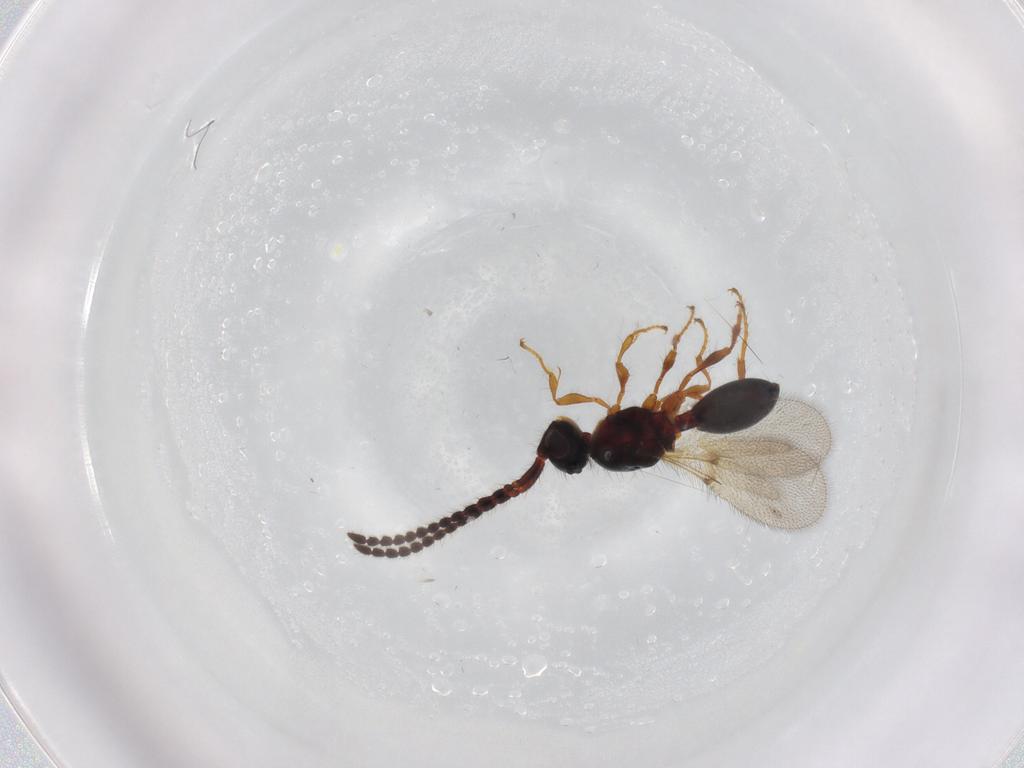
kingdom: Animalia
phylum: Arthropoda
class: Insecta
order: Hymenoptera
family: Diapriidae
